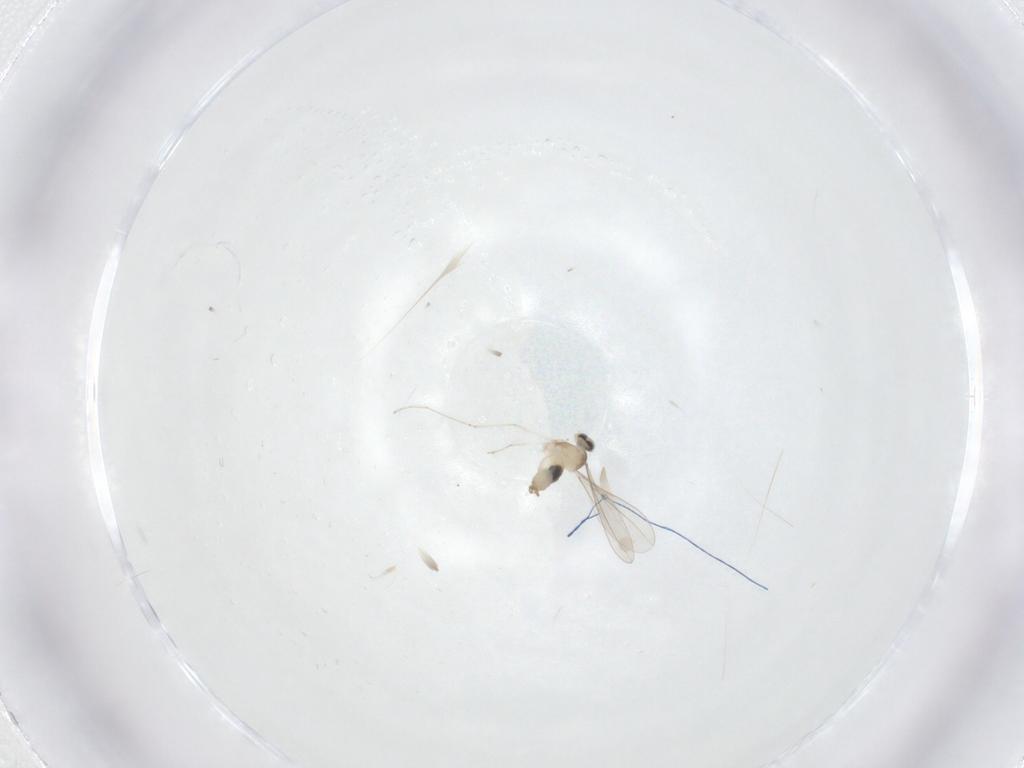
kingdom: Animalia
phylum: Arthropoda
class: Insecta
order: Diptera
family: Cecidomyiidae
